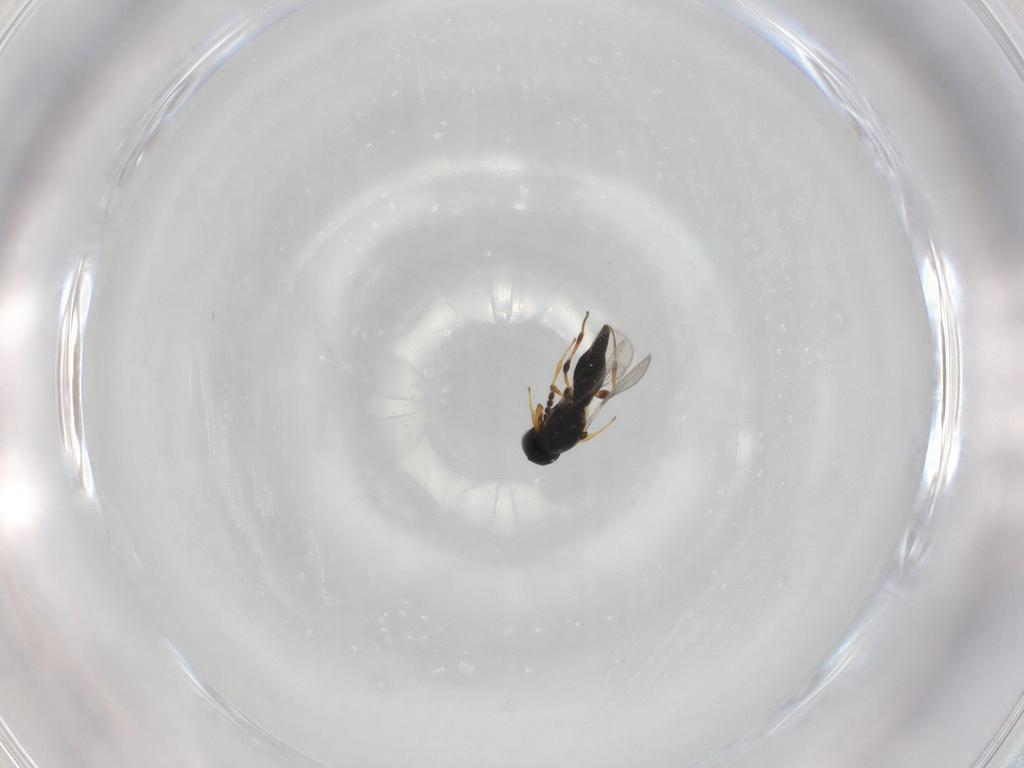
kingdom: Animalia
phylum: Arthropoda
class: Insecta
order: Hymenoptera
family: Platygastridae
